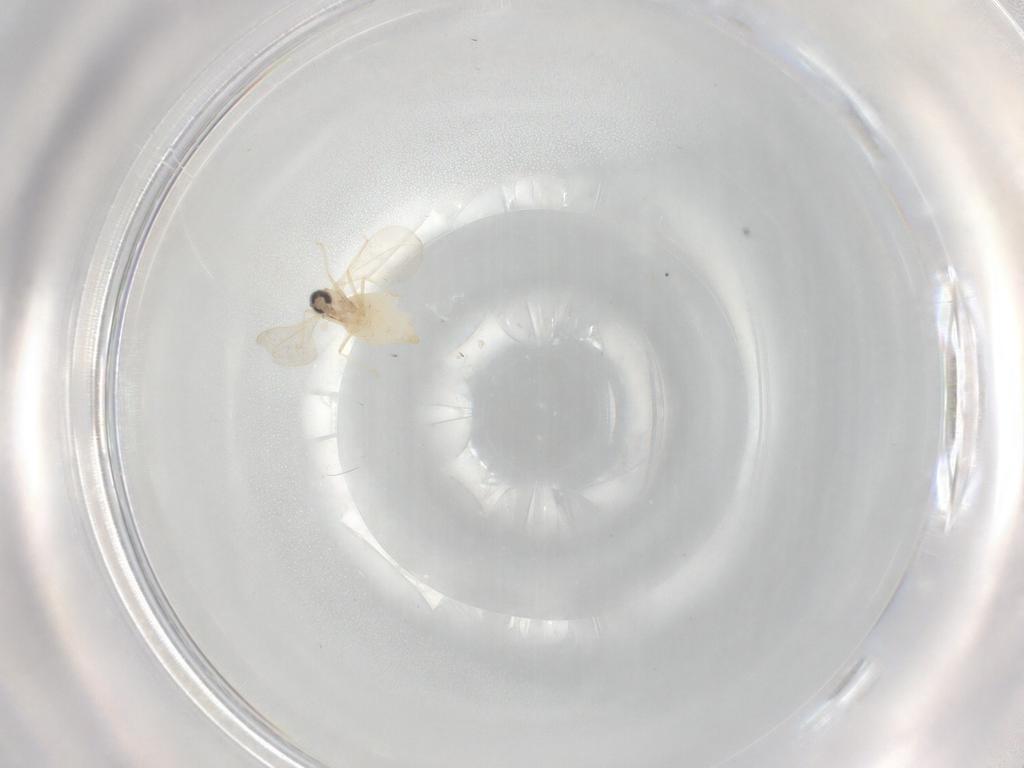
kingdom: Animalia
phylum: Arthropoda
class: Insecta
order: Diptera
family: Cecidomyiidae
